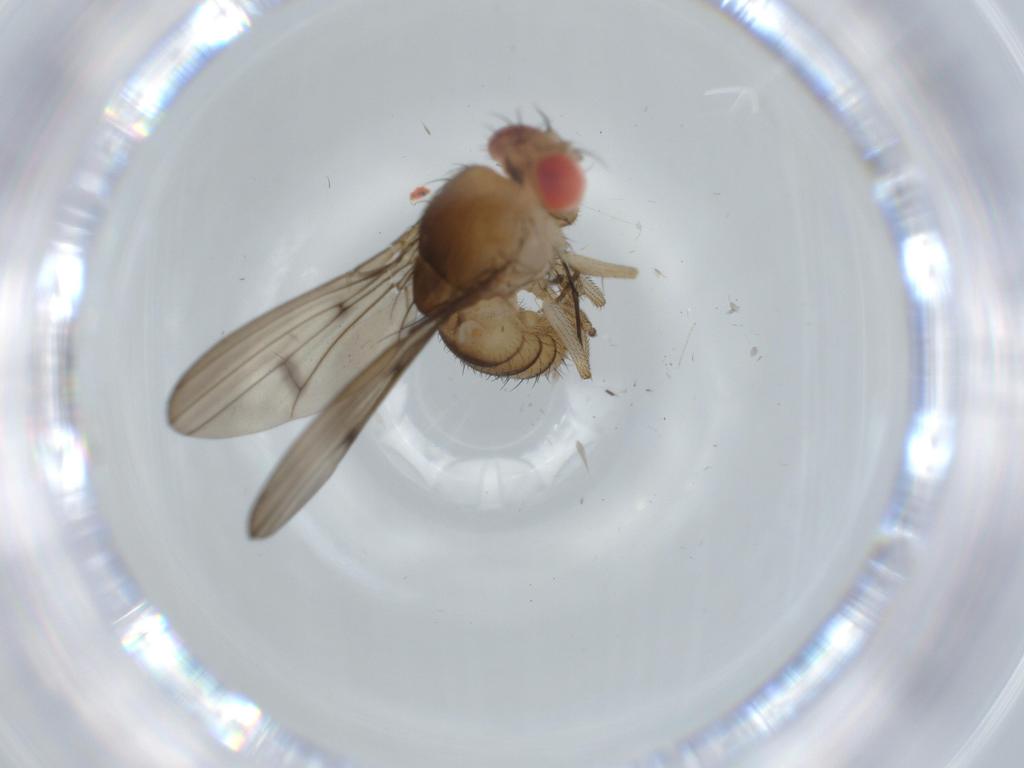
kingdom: Animalia
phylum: Arthropoda
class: Insecta
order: Diptera
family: Drosophilidae
